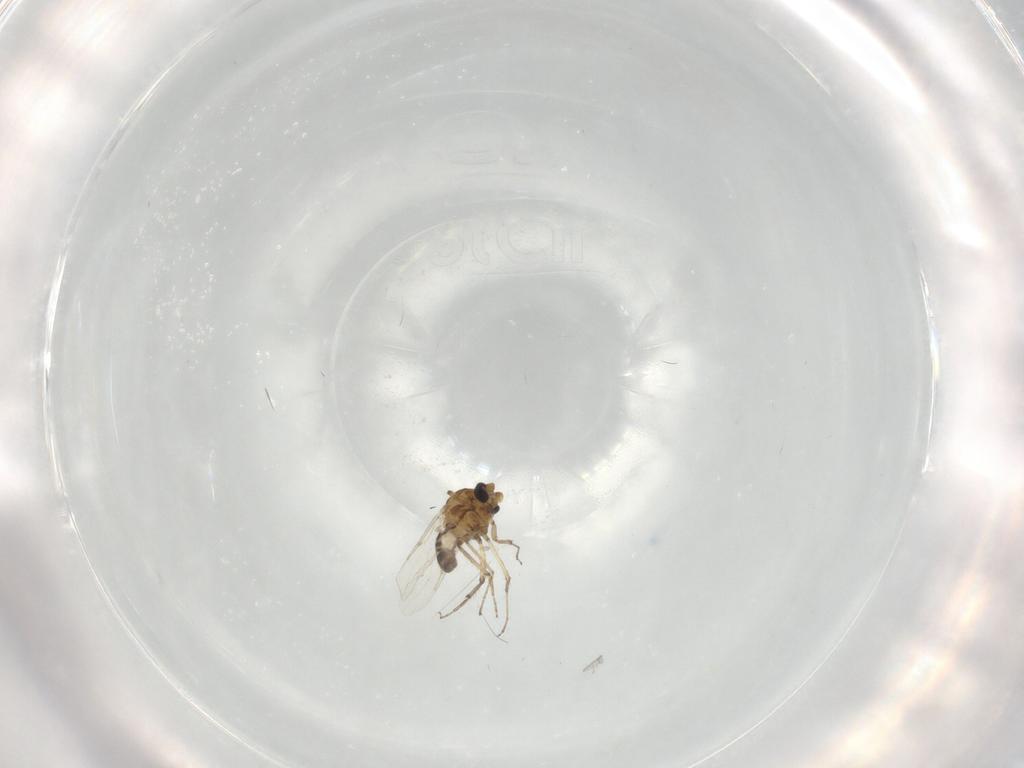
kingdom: Animalia
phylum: Arthropoda
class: Insecta
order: Diptera
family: Ceratopogonidae
